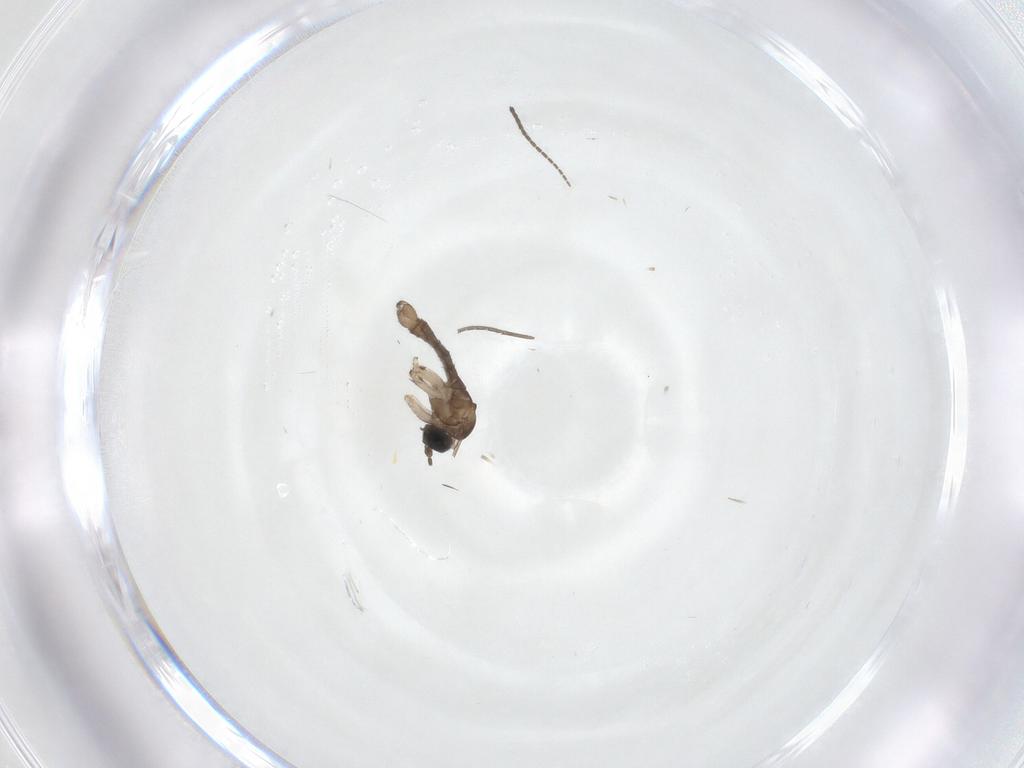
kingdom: Animalia
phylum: Arthropoda
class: Insecta
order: Diptera
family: Sciaridae
